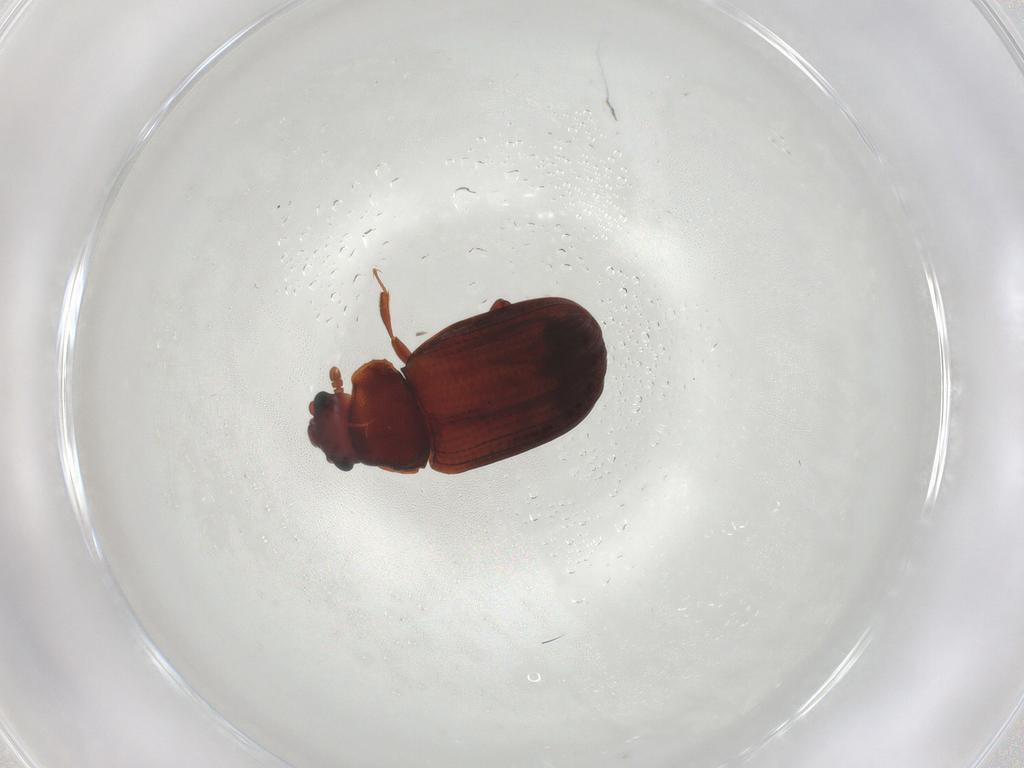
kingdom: Animalia
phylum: Arthropoda
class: Insecta
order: Coleoptera
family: Sphindidae
